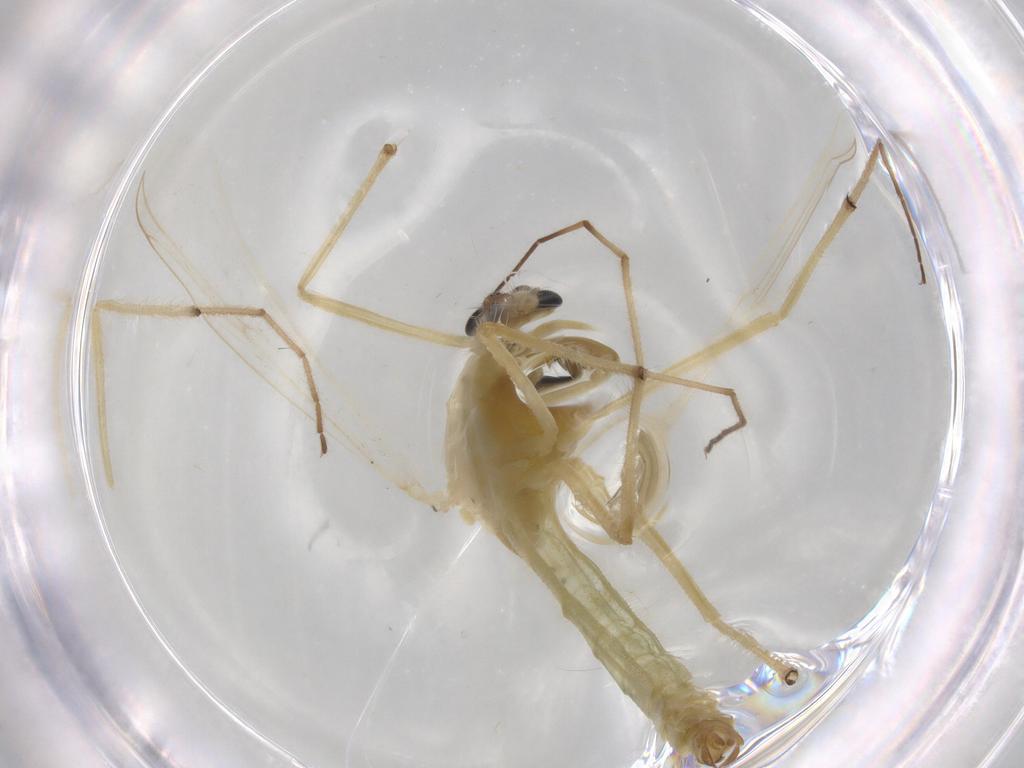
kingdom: Animalia
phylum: Arthropoda
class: Insecta
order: Diptera
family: Chironomidae
